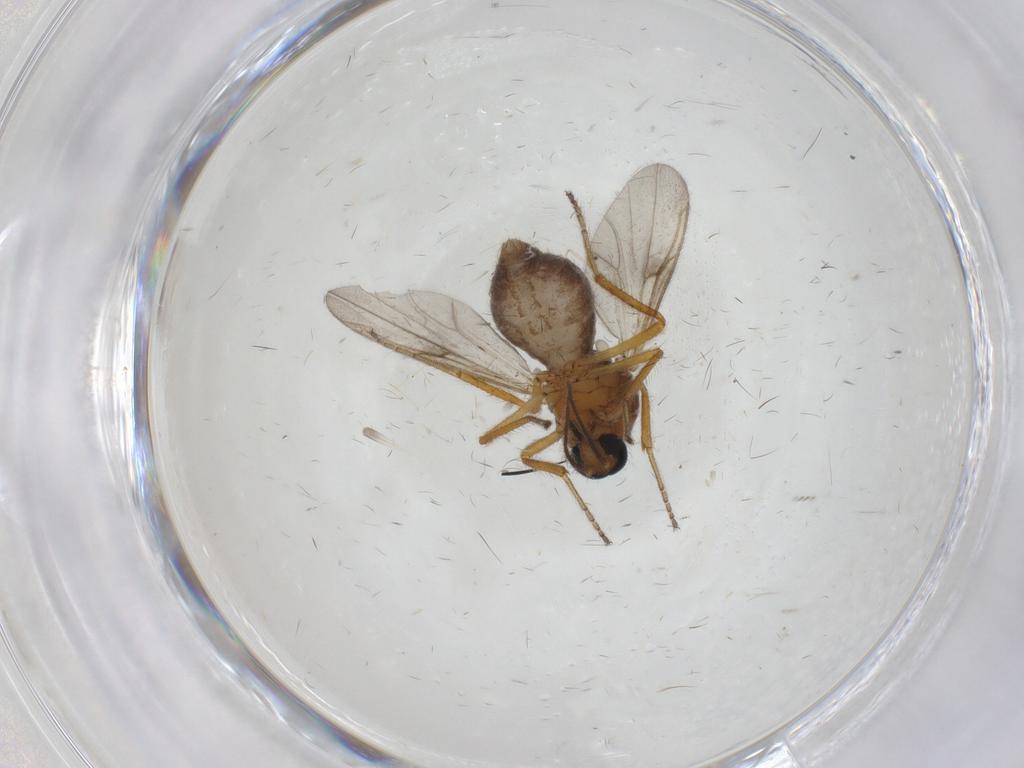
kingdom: Animalia
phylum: Arthropoda
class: Insecta
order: Diptera
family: Ceratopogonidae
